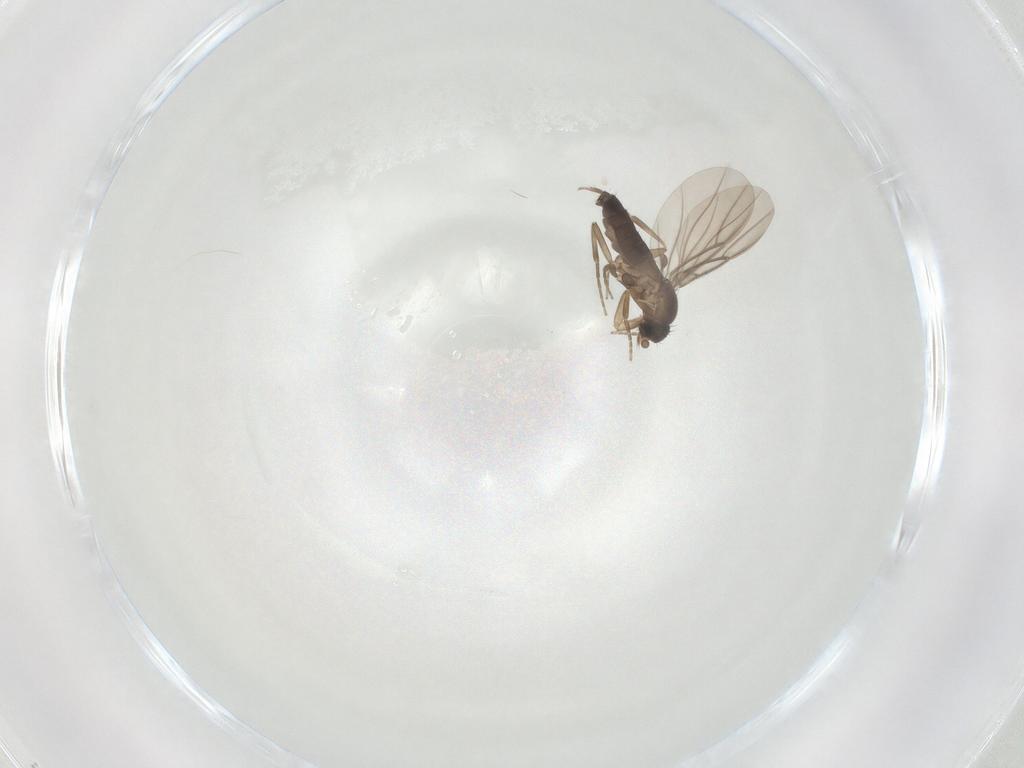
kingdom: Animalia
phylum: Arthropoda
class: Insecta
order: Diptera
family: Phoridae
